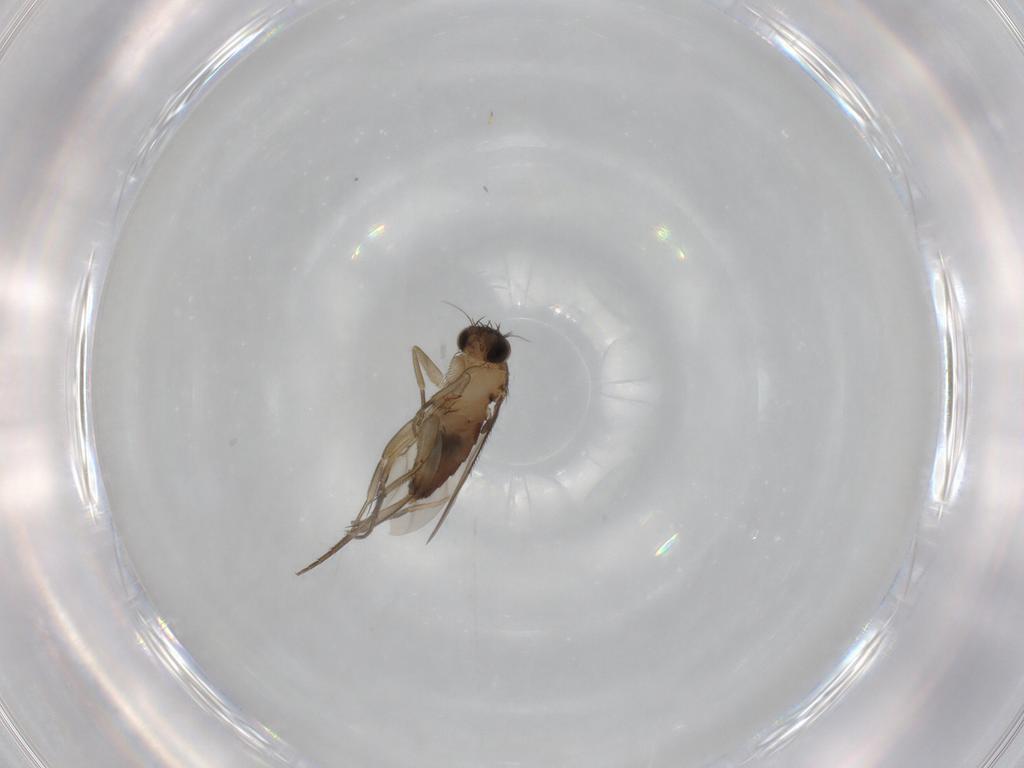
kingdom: Animalia
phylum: Arthropoda
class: Insecta
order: Diptera
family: Phoridae
